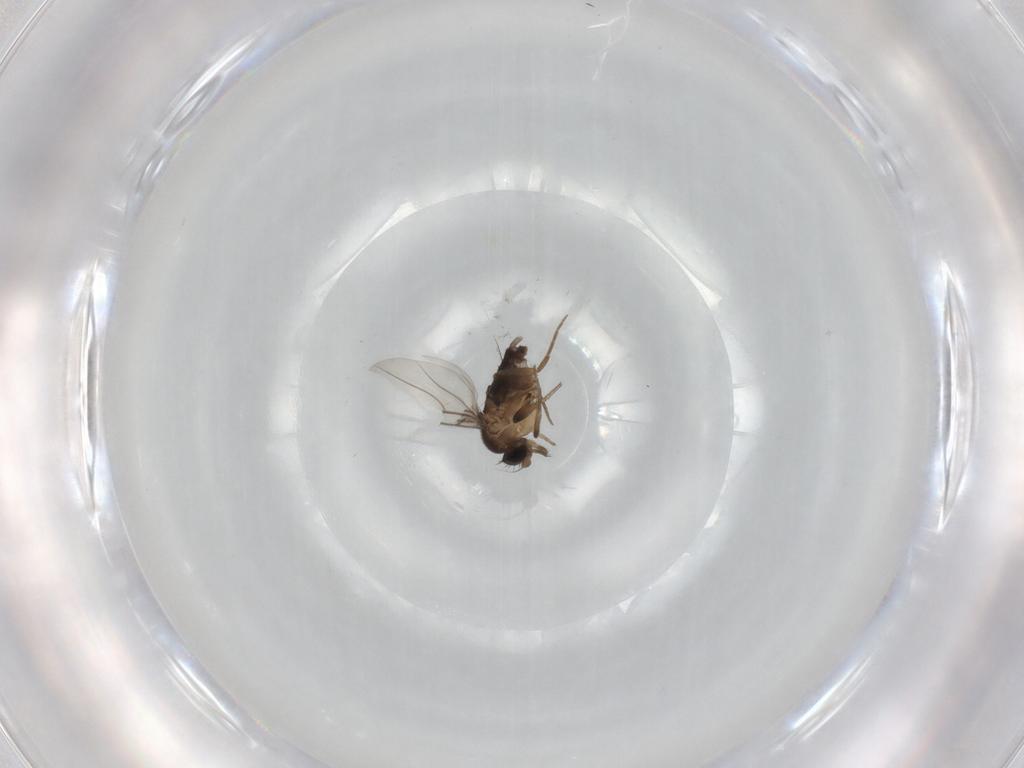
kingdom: Animalia
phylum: Arthropoda
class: Insecta
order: Diptera
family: Phoridae
